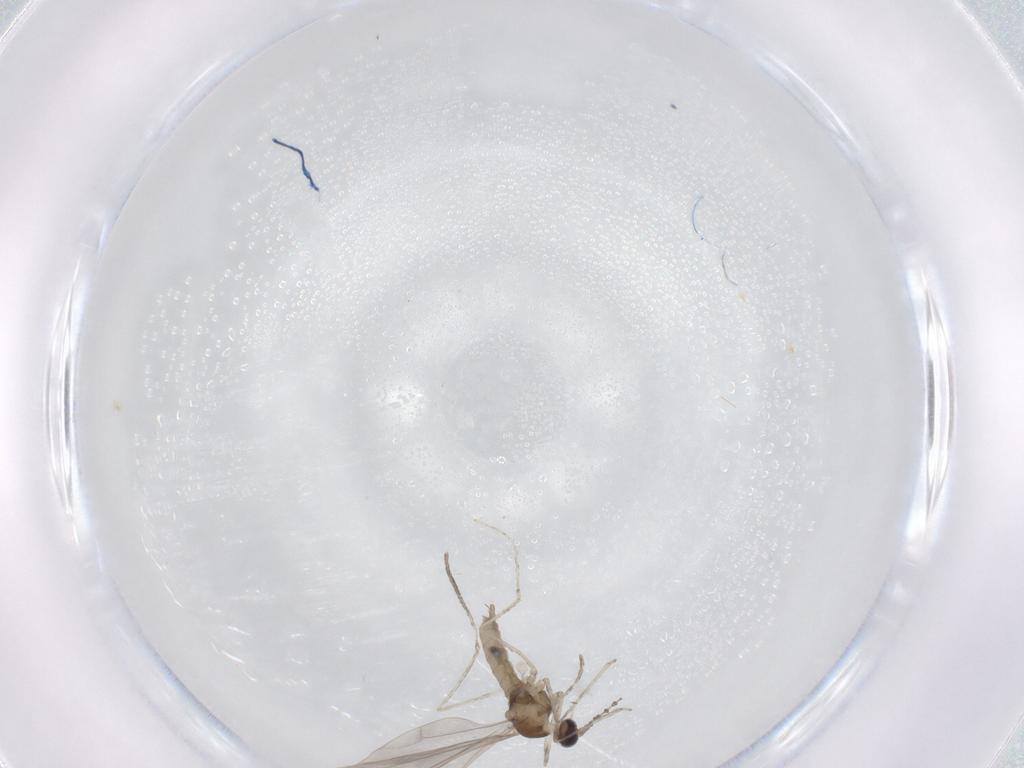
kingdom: Animalia
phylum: Arthropoda
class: Insecta
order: Diptera
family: Cecidomyiidae
